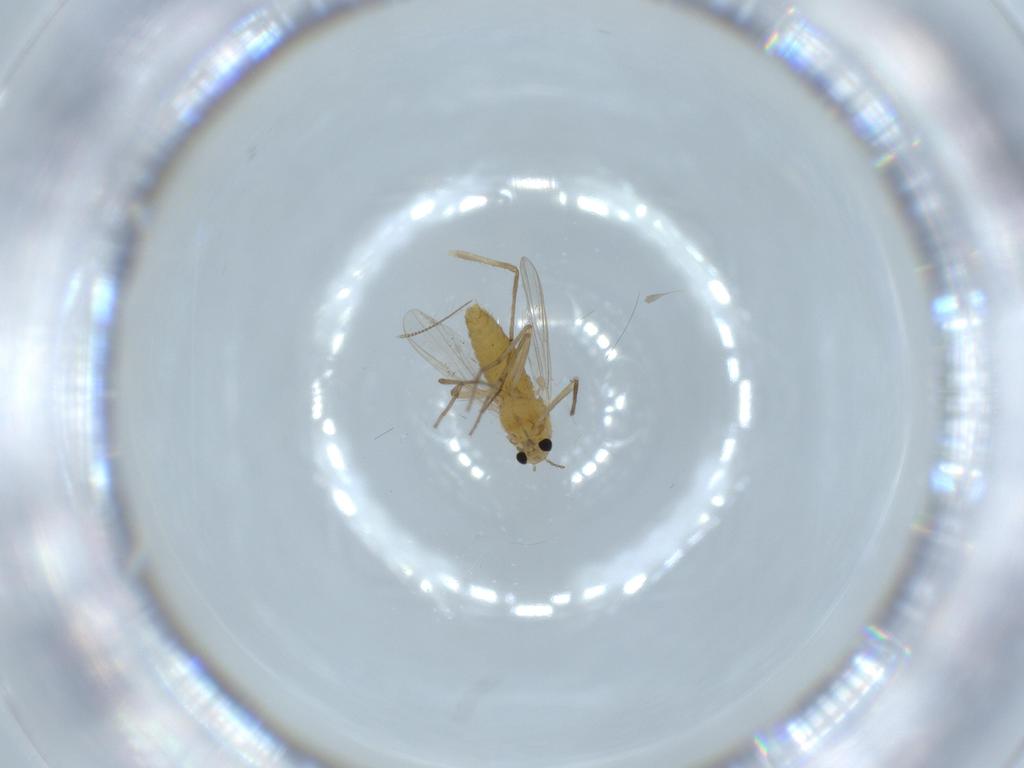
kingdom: Animalia
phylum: Arthropoda
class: Insecta
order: Diptera
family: Chironomidae
